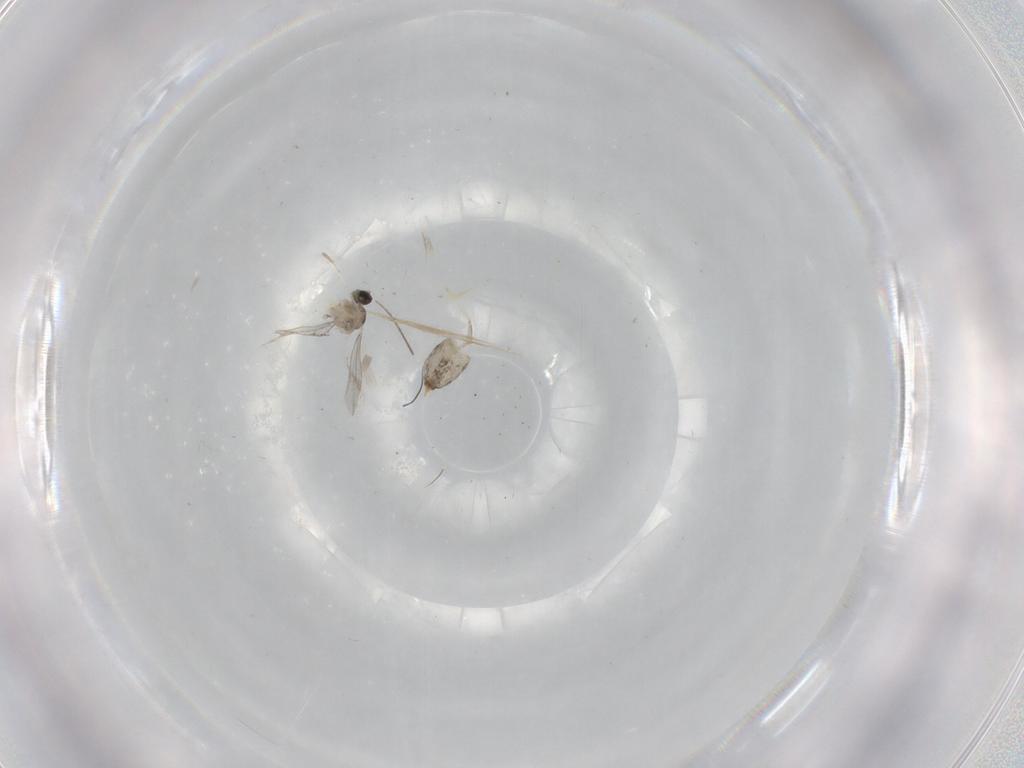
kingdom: Animalia
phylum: Arthropoda
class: Insecta
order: Diptera
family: Cecidomyiidae
